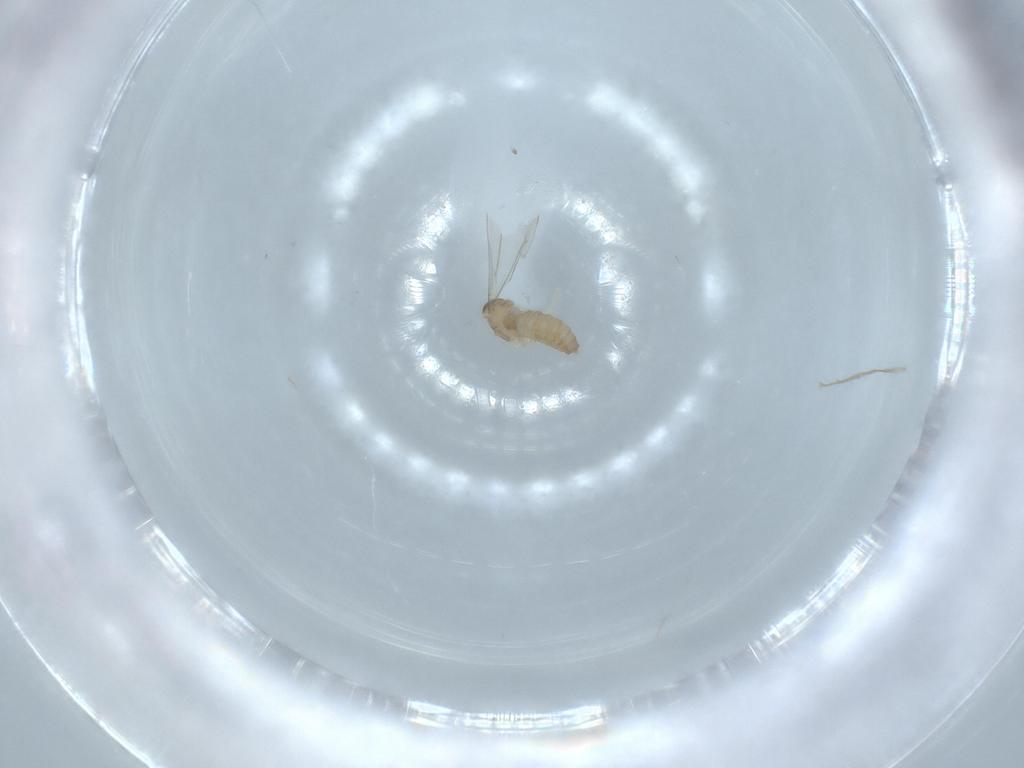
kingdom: Animalia
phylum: Arthropoda
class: Insecta
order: Diptera
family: Cecidomyiidae
